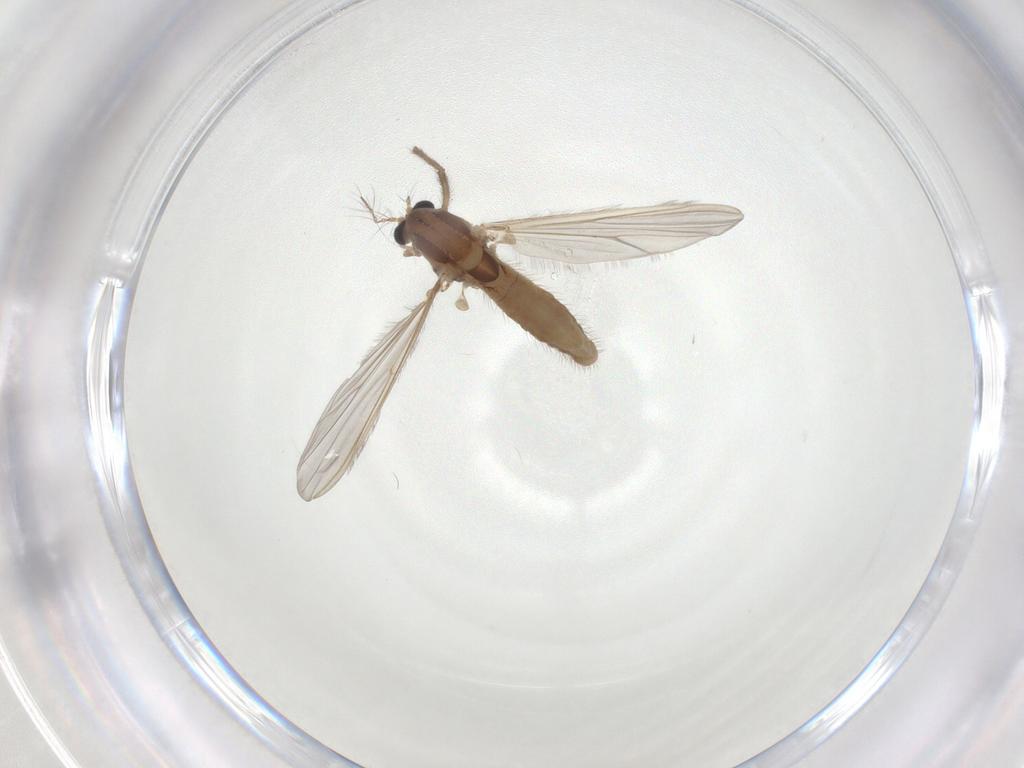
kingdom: Animalia
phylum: Arthropoda
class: Insecta
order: Diptera
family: Chironomidae
